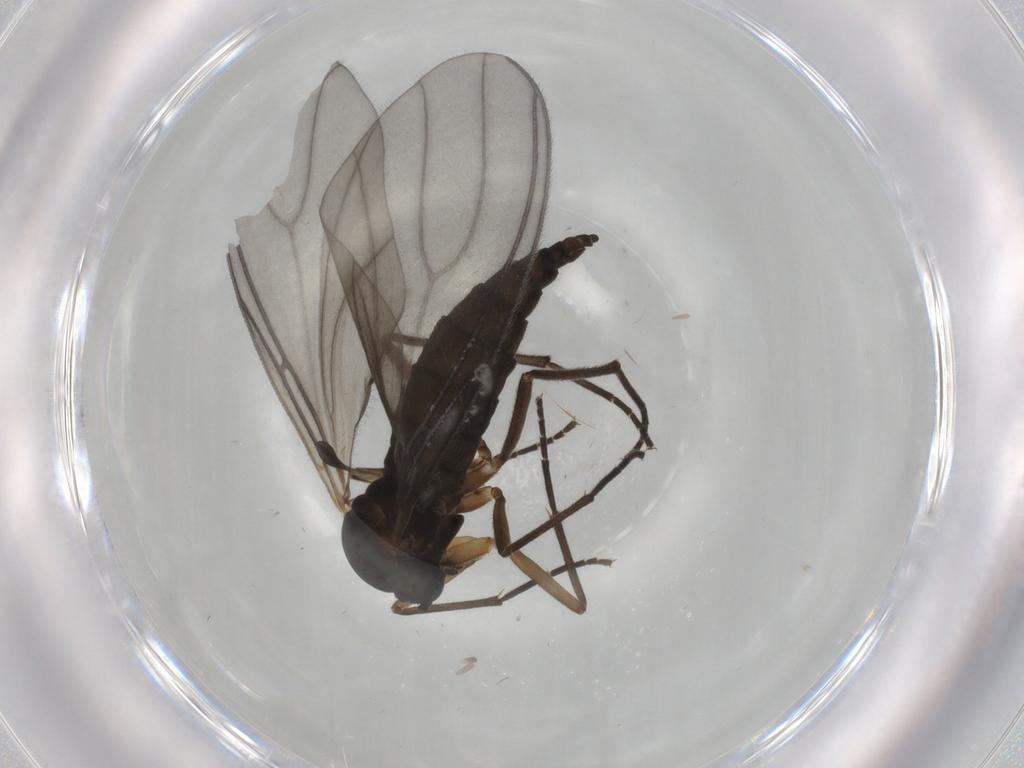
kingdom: Animalia
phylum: Arthropoda
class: Insecta
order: Diptera
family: Sciaridae
